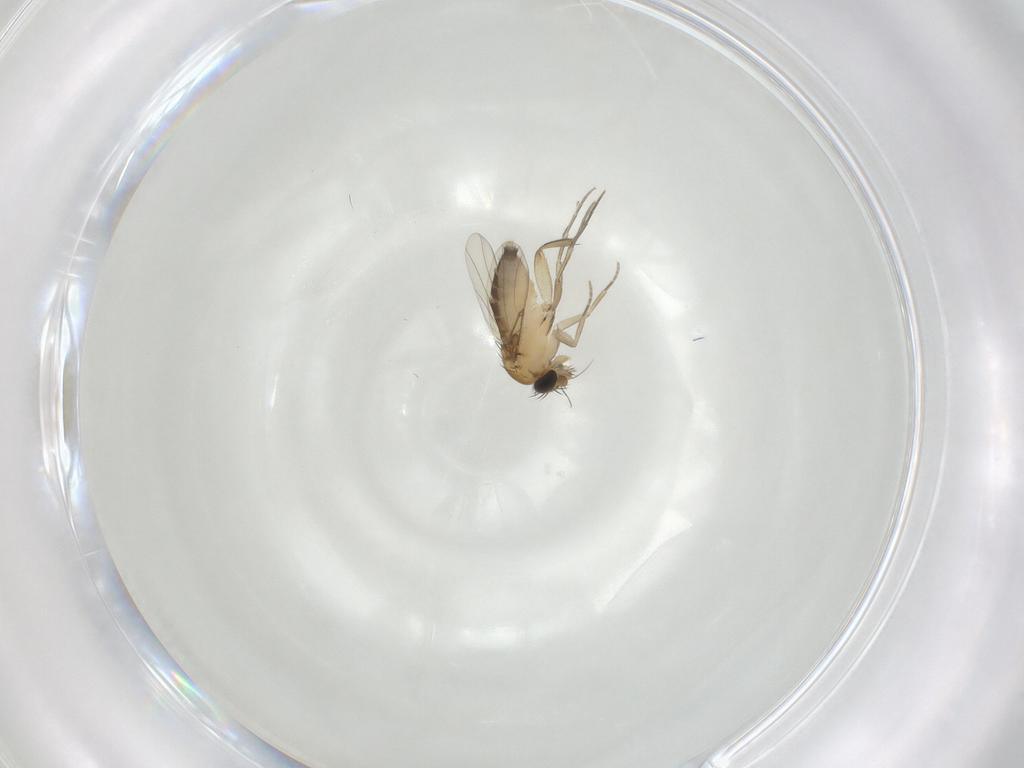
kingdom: Animalia
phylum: Arthropoda
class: Insecta
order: Diptera
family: Phoridae
